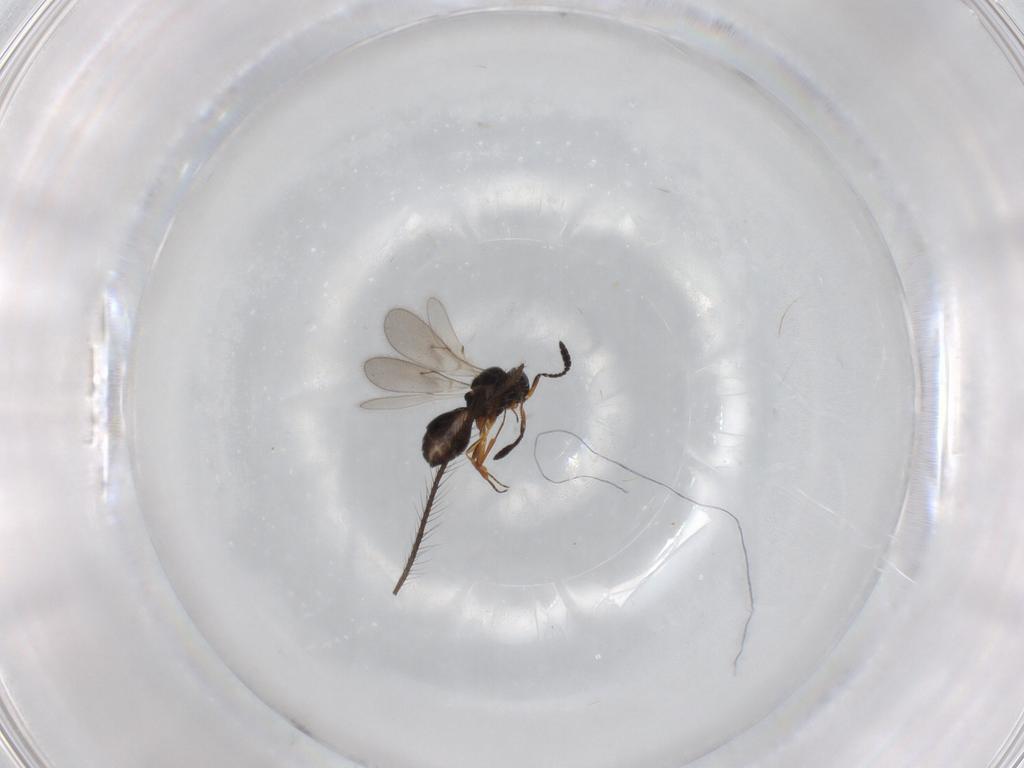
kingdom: Animalia
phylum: Arthropoda
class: Insecta
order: Hymenoptera
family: Scelionidae
